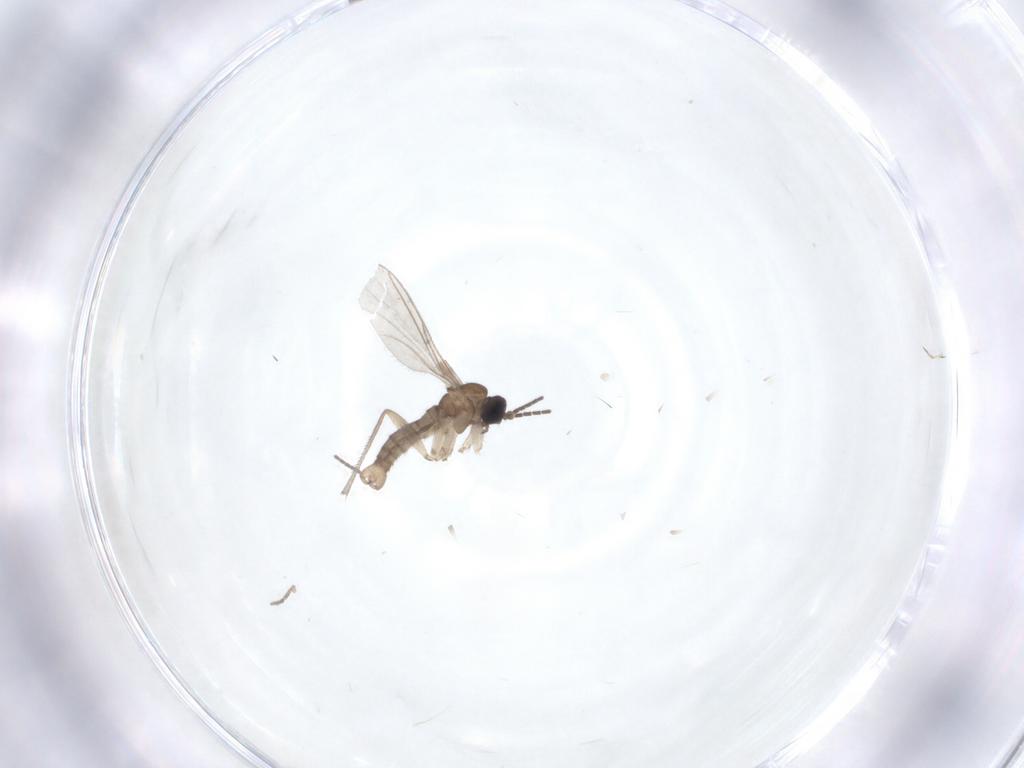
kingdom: Animalia
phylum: Arthropoda
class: Insecta
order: Diptera
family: Sciaridae
